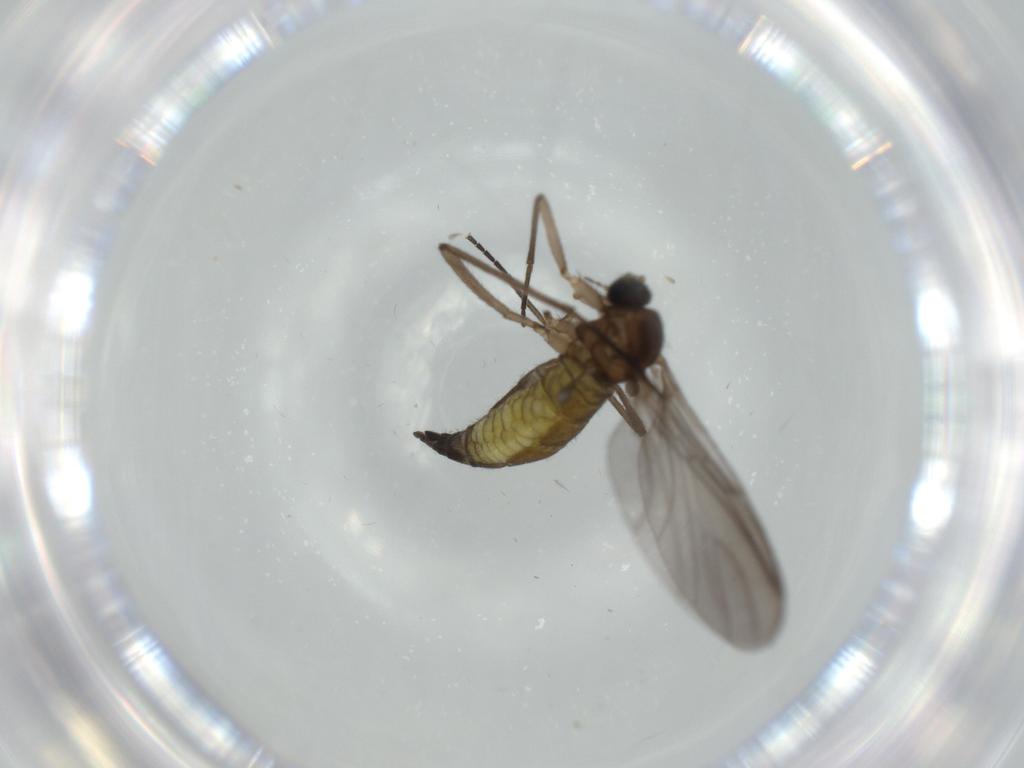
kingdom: Animalia
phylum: Arthropoda
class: Insecta
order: Diptera
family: Sciaridae
